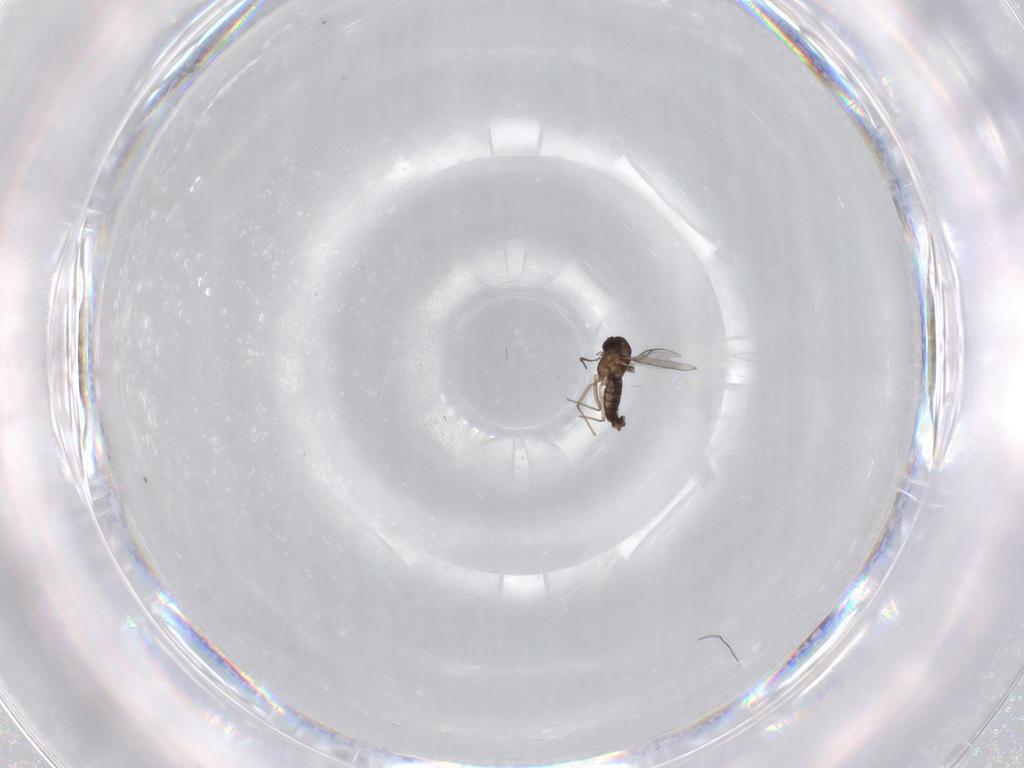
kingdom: Animalia
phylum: Arthropoda
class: Insecta
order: Diptera
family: Chironomidae
